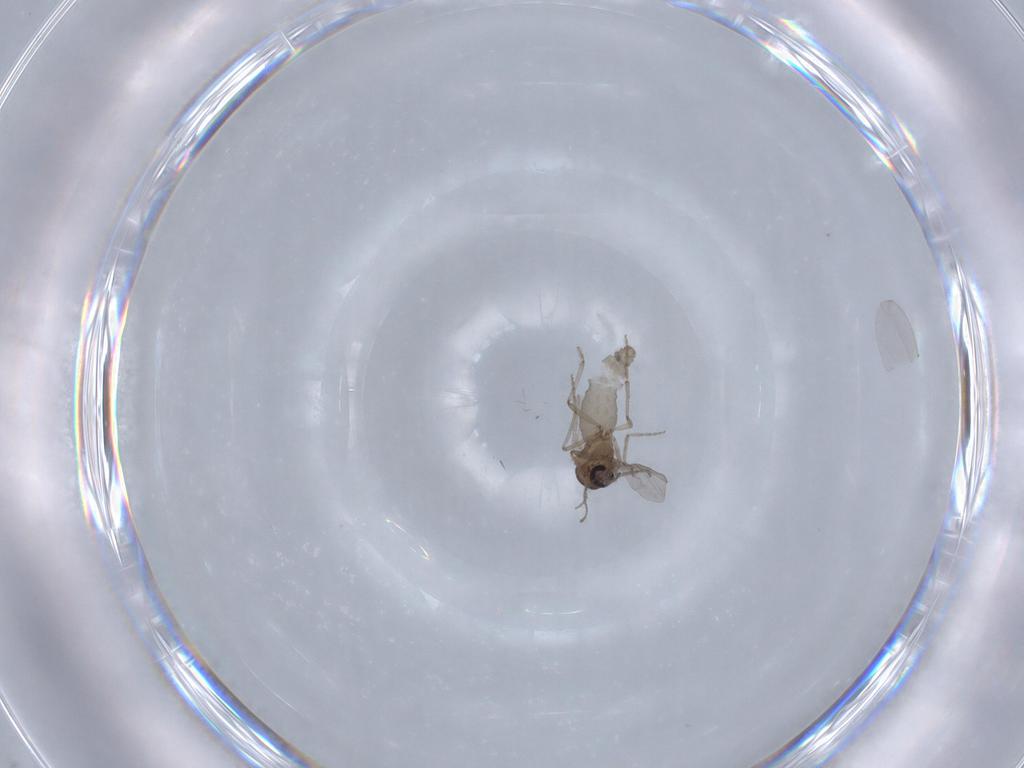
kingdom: Animalia
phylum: Arthropoda
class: Insecta
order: Diptera
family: Ceratopogonidae
